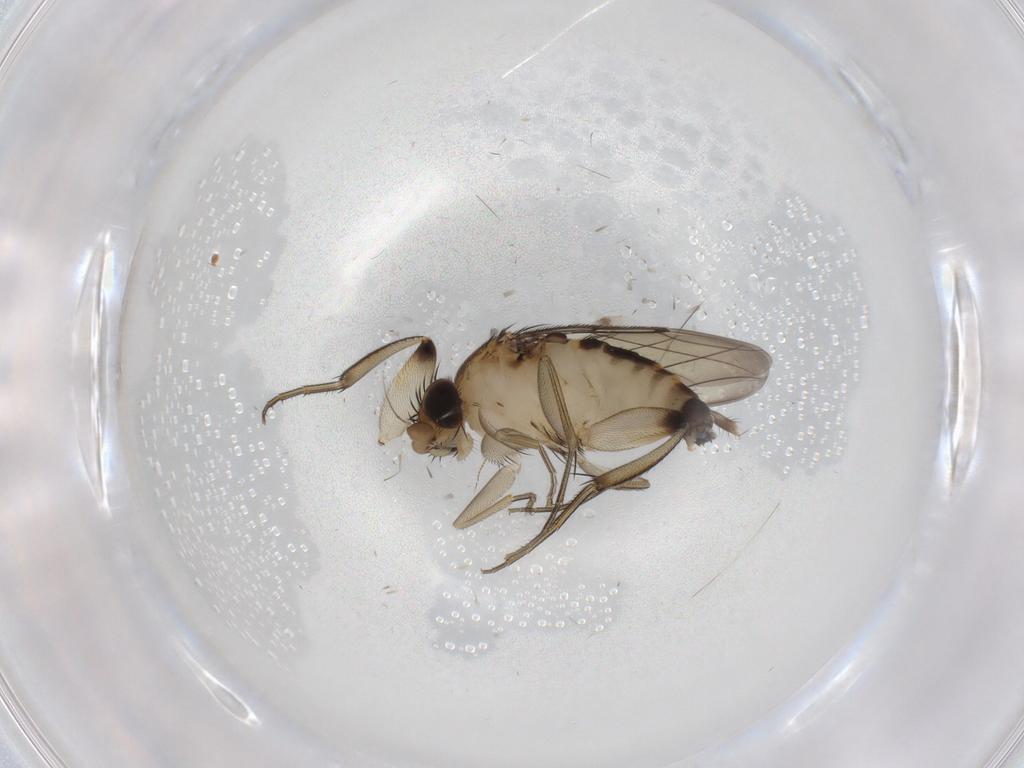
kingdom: Animalia
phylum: Arthropoda
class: Insecta
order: Diptera
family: Phoridae
